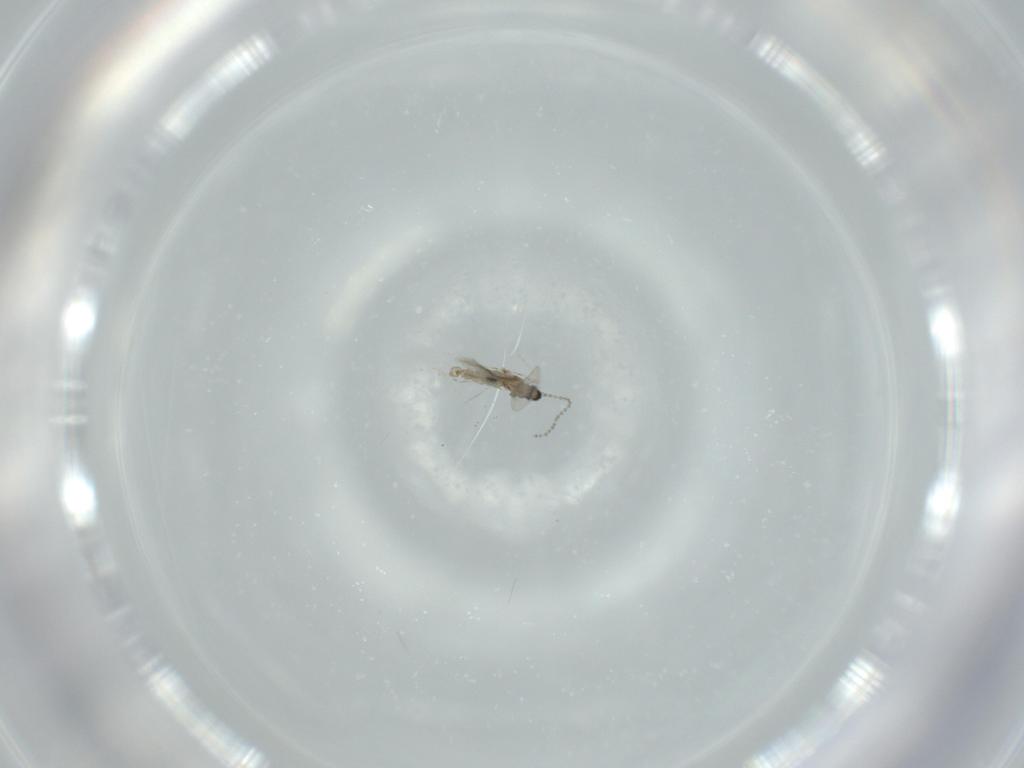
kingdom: Animalia
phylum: Arthropoda
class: Insecta
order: Diptera
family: Cecidomyiidae
